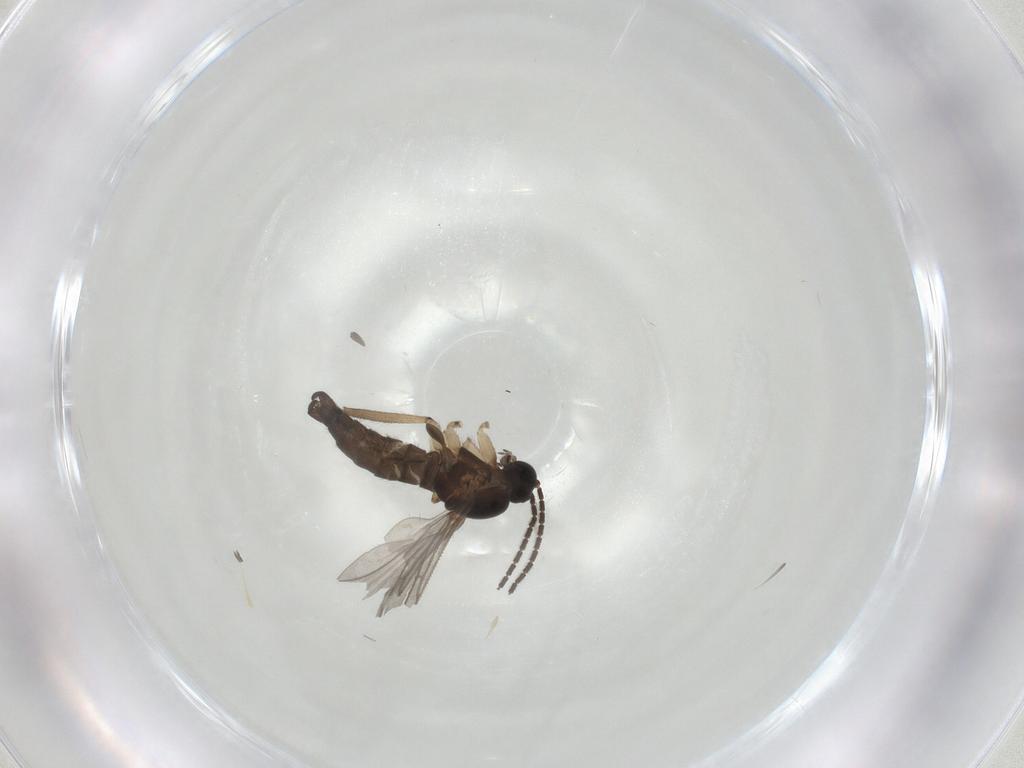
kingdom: Animalia
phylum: Arthropoda
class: Insecta
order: Diptera
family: Sciaridae
